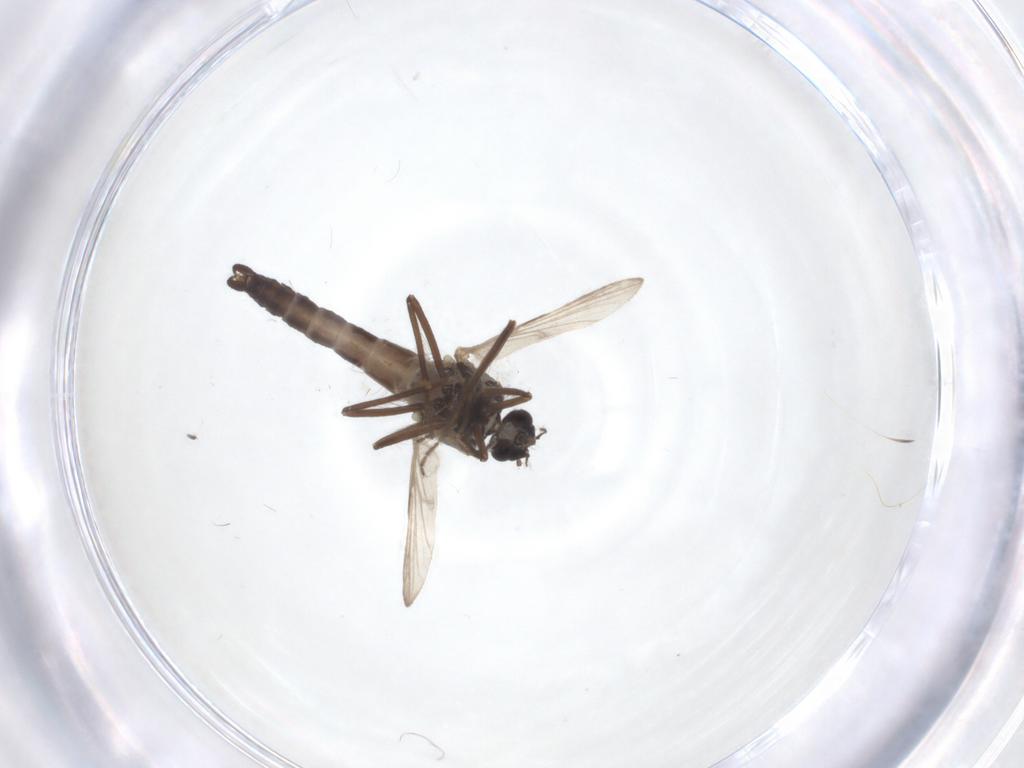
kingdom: Animalia
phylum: Arthropoda
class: Insecta
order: Diptera
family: Ceratopogonidae
